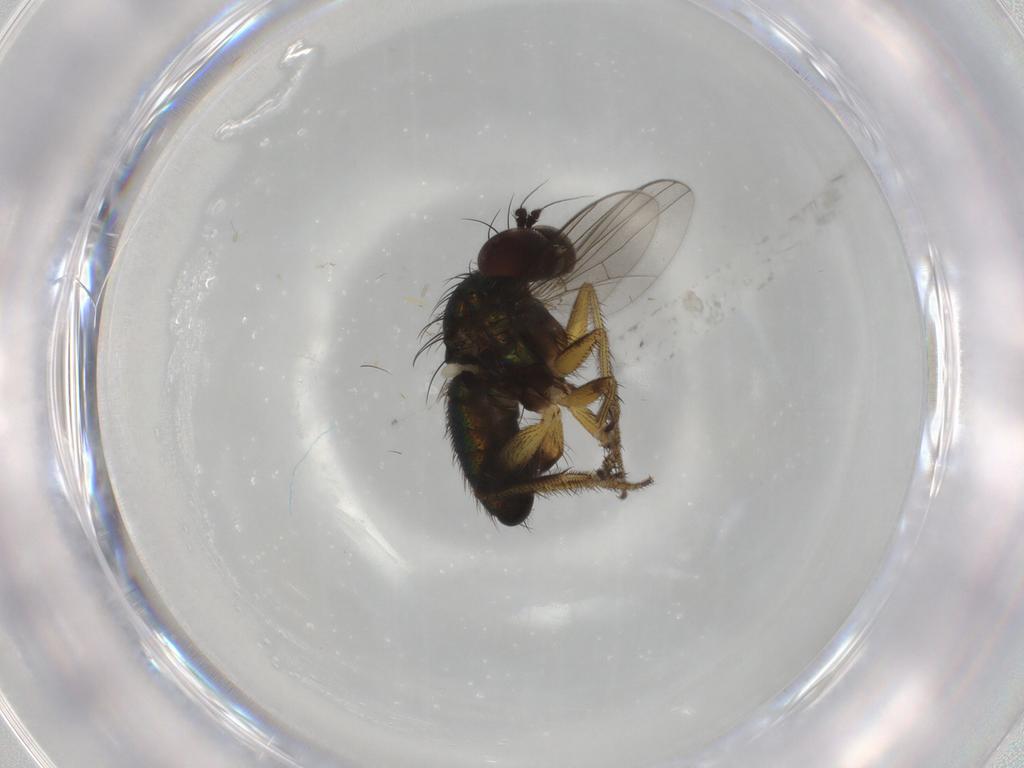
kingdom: Animalia
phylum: Arthropoda
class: Insecta
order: Diptera
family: Dolichopodidae
